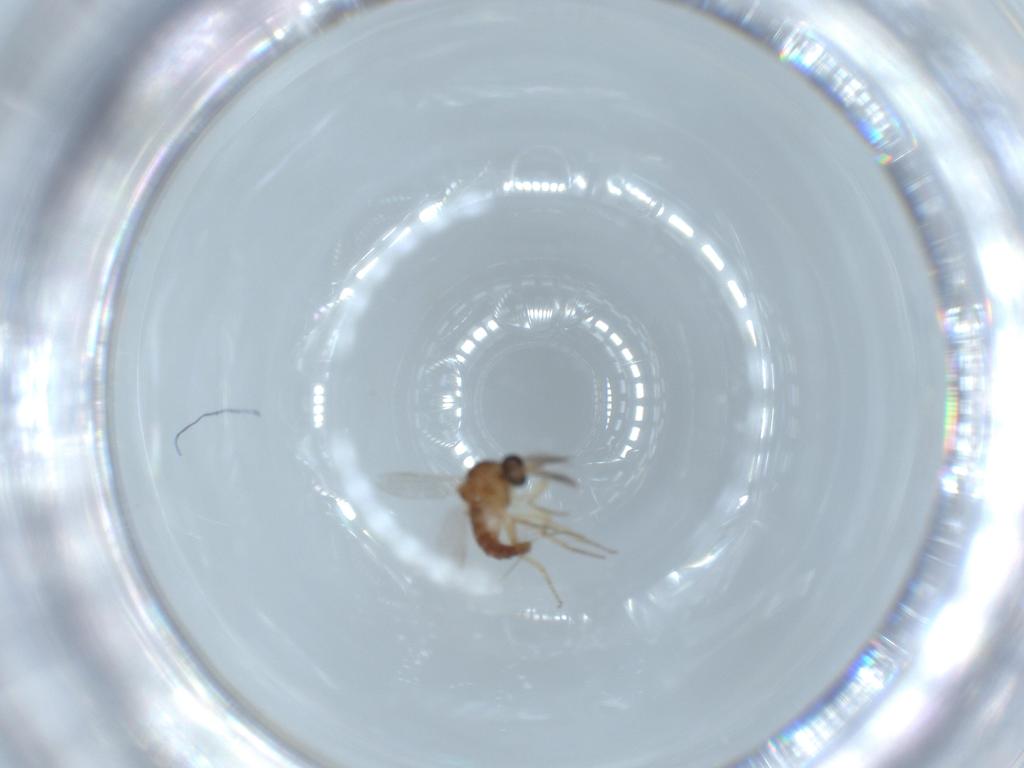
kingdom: Animalia
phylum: Arthropoda
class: Insecta
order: Diptera
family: Ceratopogonidae
